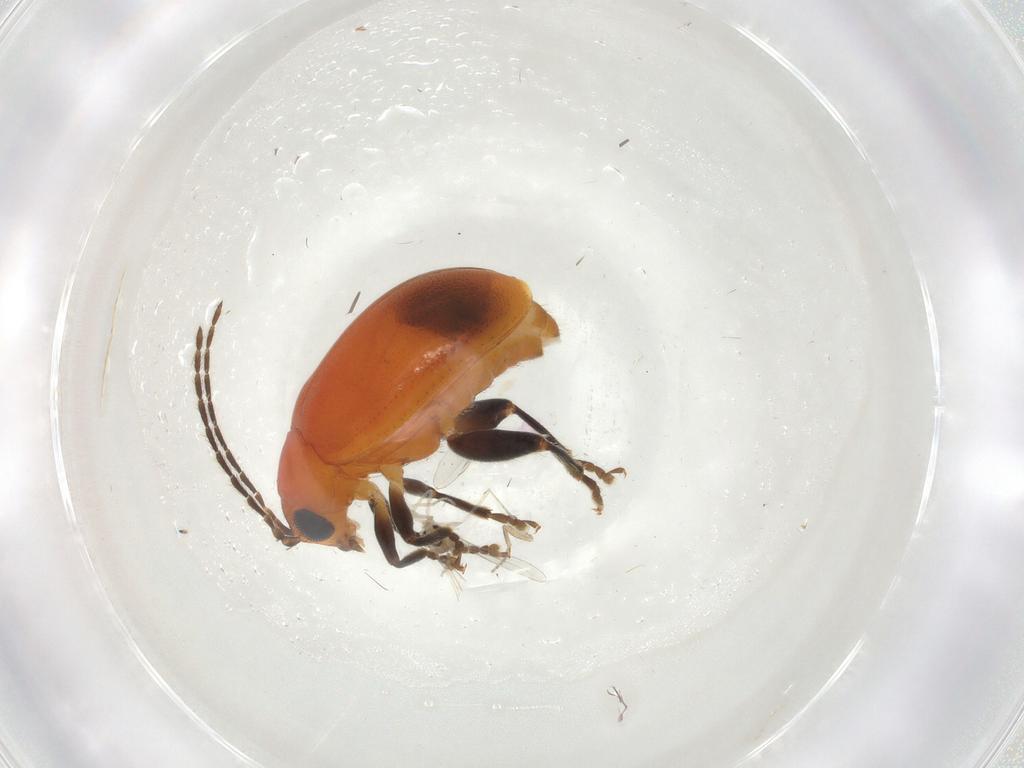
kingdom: Animalia
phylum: Arthropoda
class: Insecta
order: Coleoptera
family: Chrysomelidae
